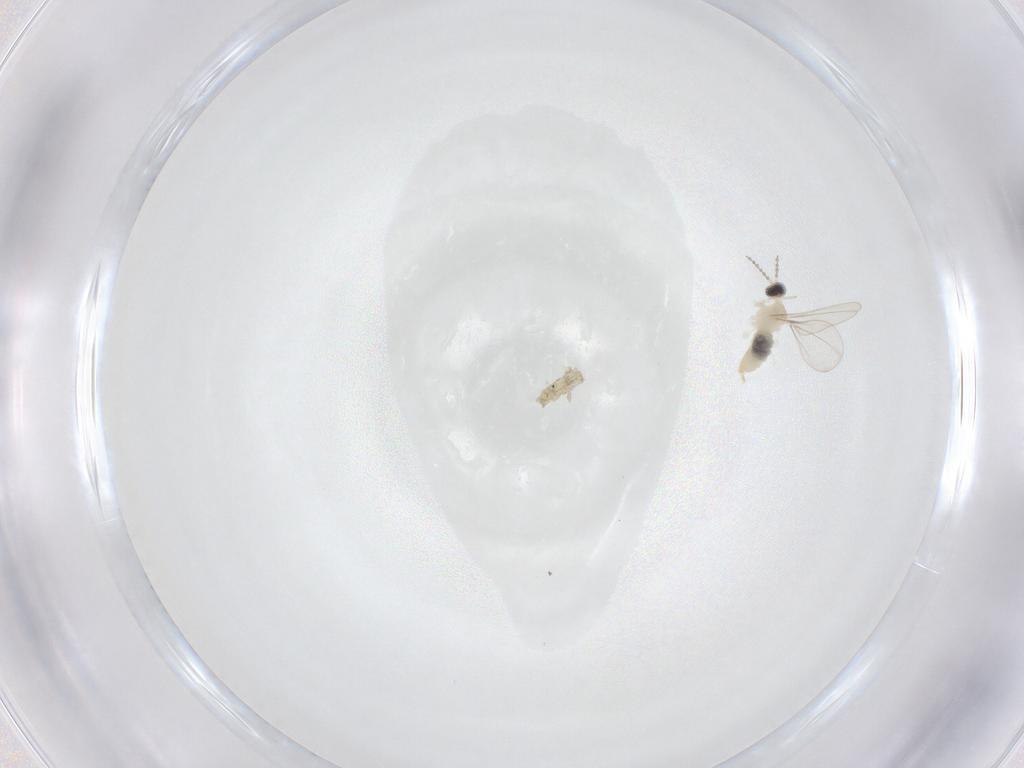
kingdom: Animalia
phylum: Arthropoda
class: Insecta
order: Diptera
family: Cecidomyiidae
